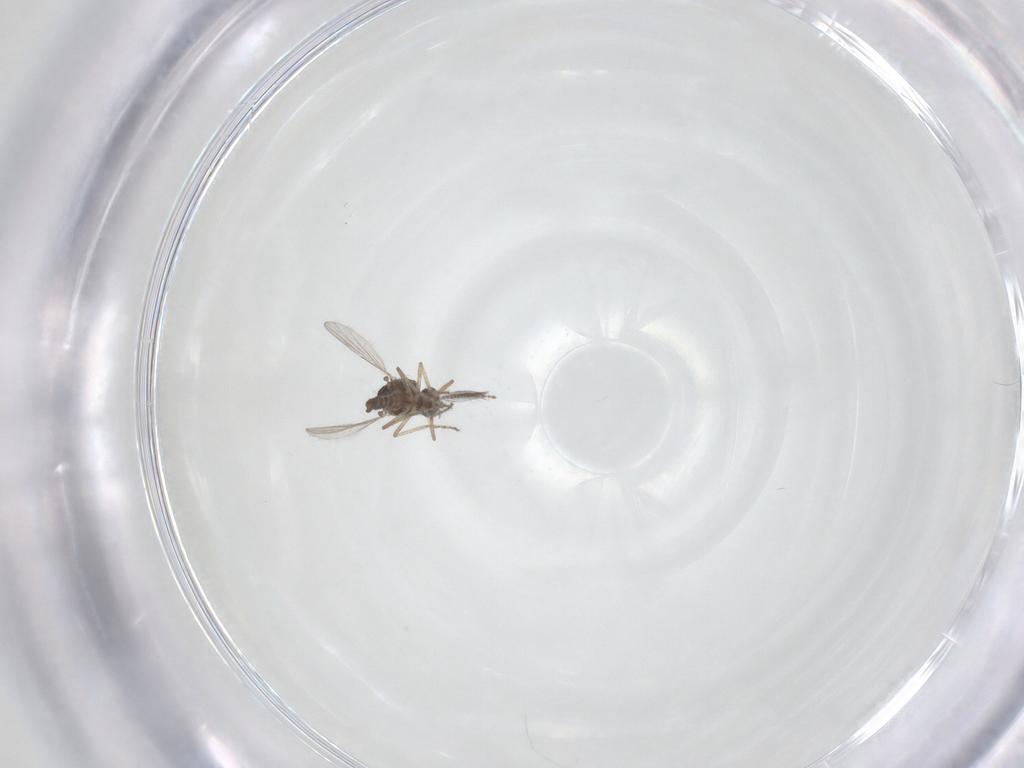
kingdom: Animalia
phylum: Arthropoda
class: Insecta
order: Diptera
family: Ceratopogonidae
